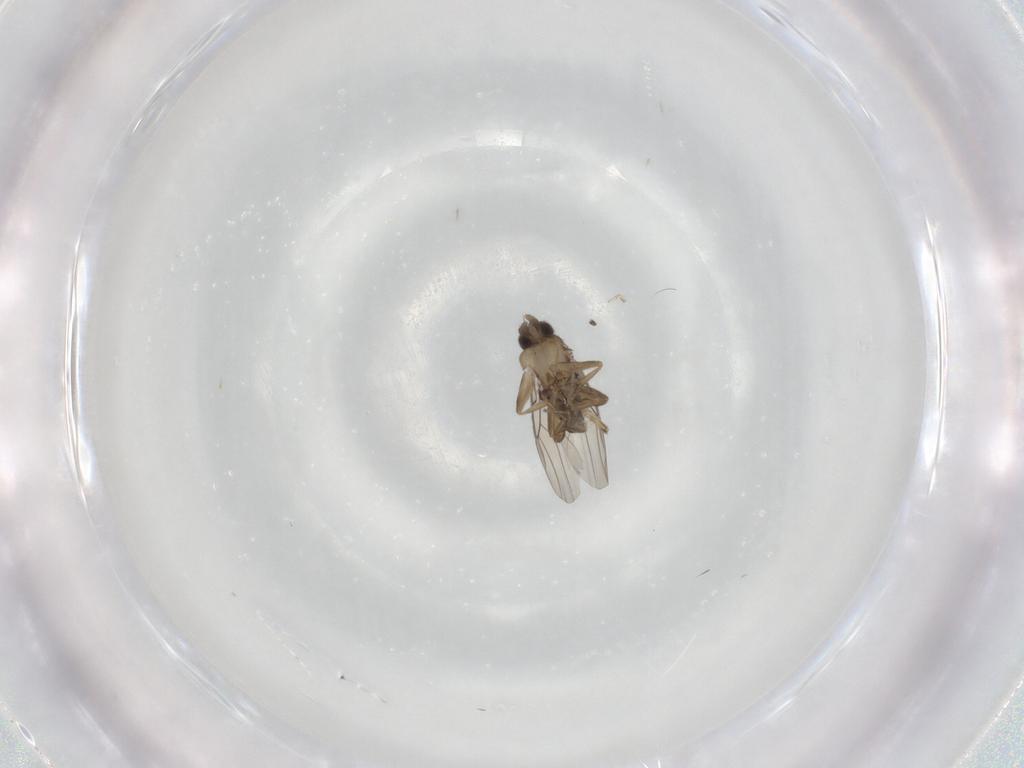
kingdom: Animalia
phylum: Arthropoda
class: Insecta
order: Diptera
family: Phoridae
